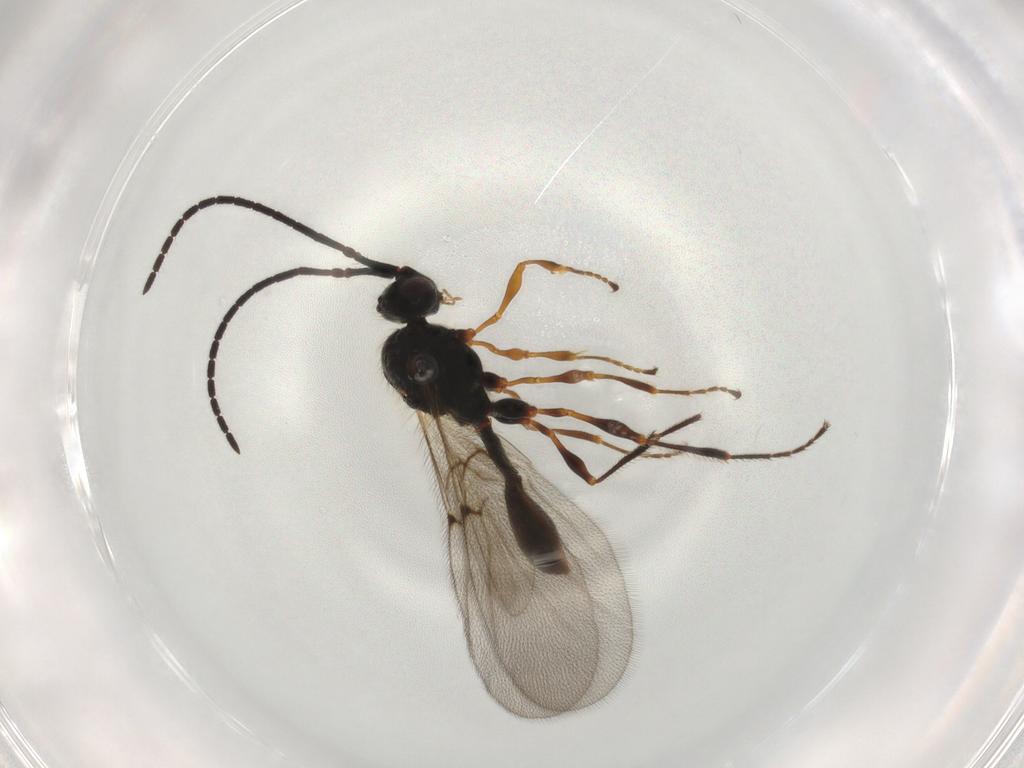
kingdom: Animalia
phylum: Arthropoda
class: Insecta
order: Hymenoptera
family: Diapriidae
